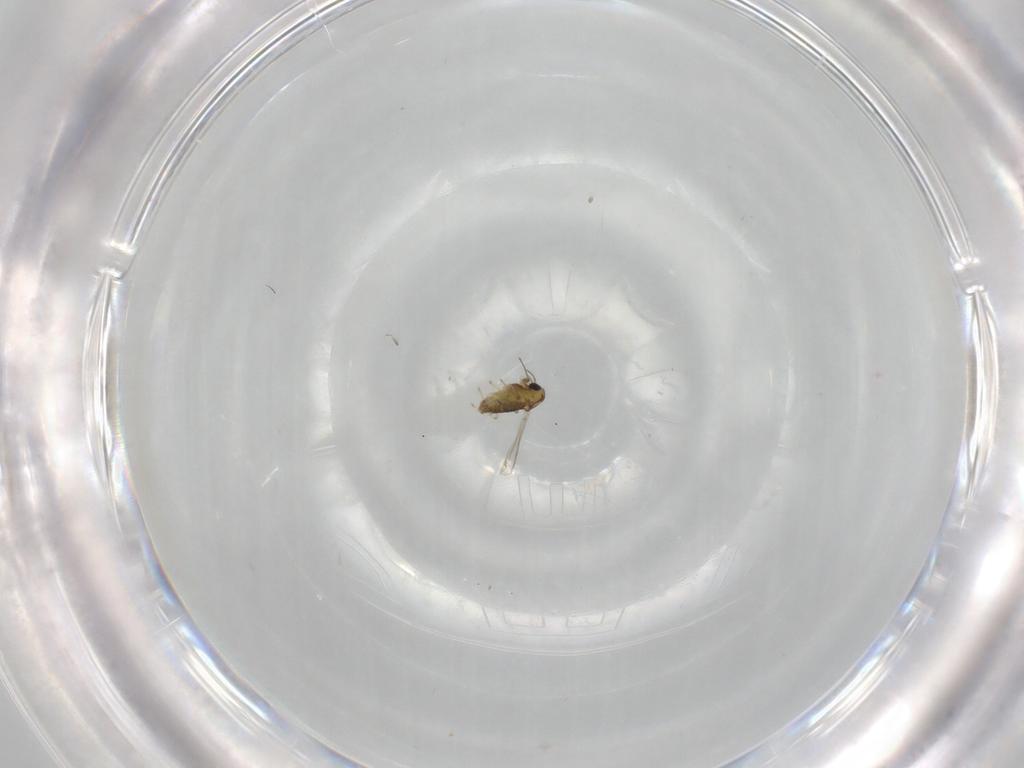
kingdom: Animalia
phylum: Arthropoda
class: Insecta
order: Diptera
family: Chironomidae
